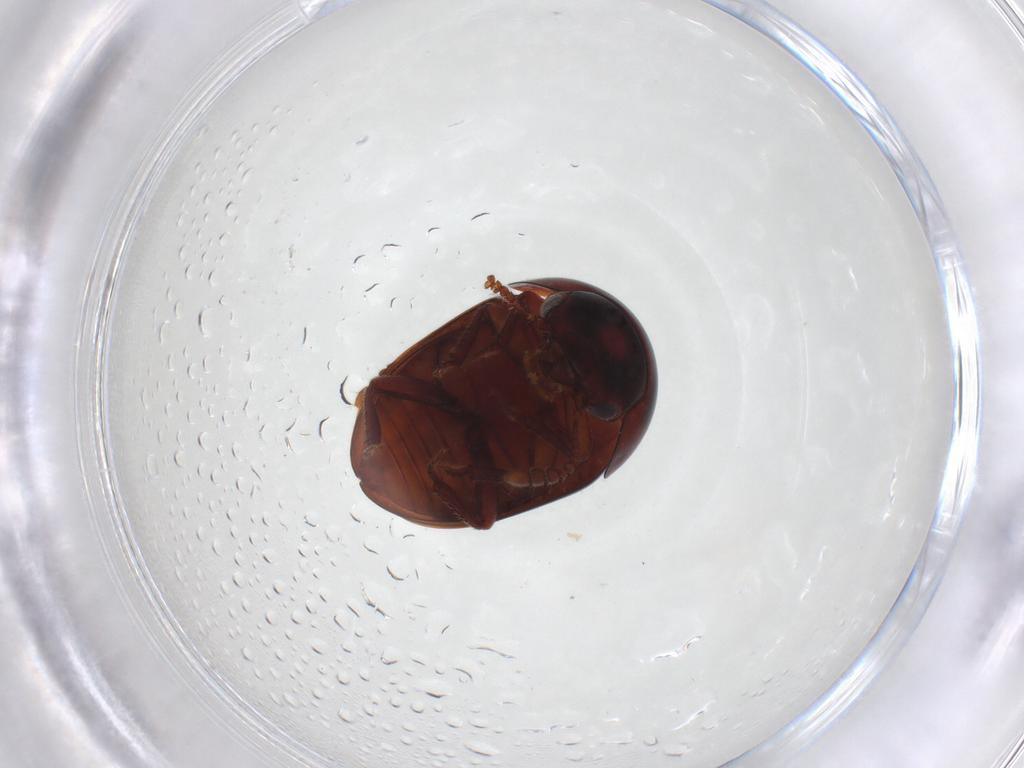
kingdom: Animalia
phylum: Arthropoda
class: Insecta
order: Coleoptera
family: Leiodidae
